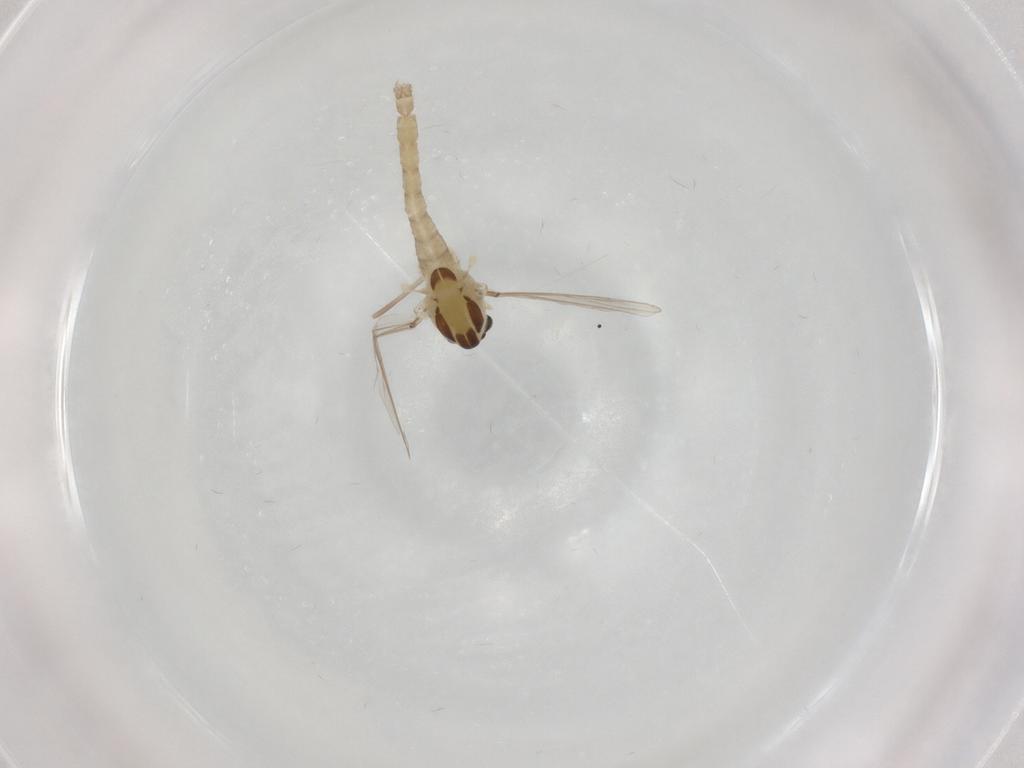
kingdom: Animalia
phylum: Arthropoda
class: Insecta
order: Diptera
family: Chironomidae
